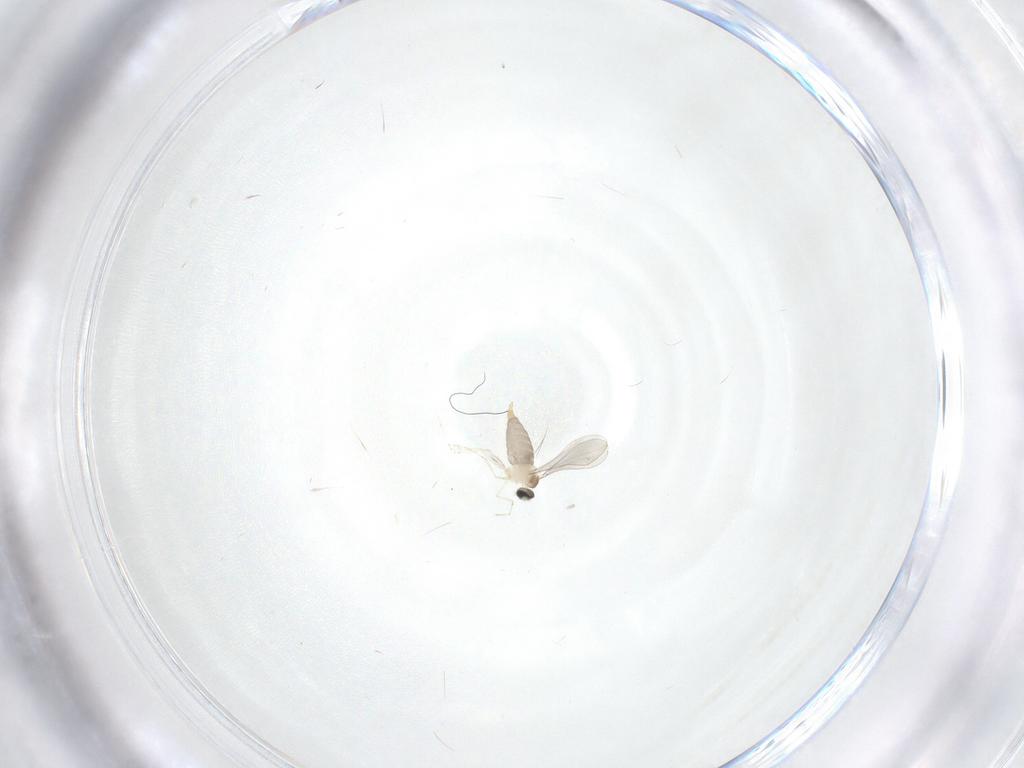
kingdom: Animalia
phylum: Arthropoda
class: Insecta
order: Diptera
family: Cecidomyiidae
